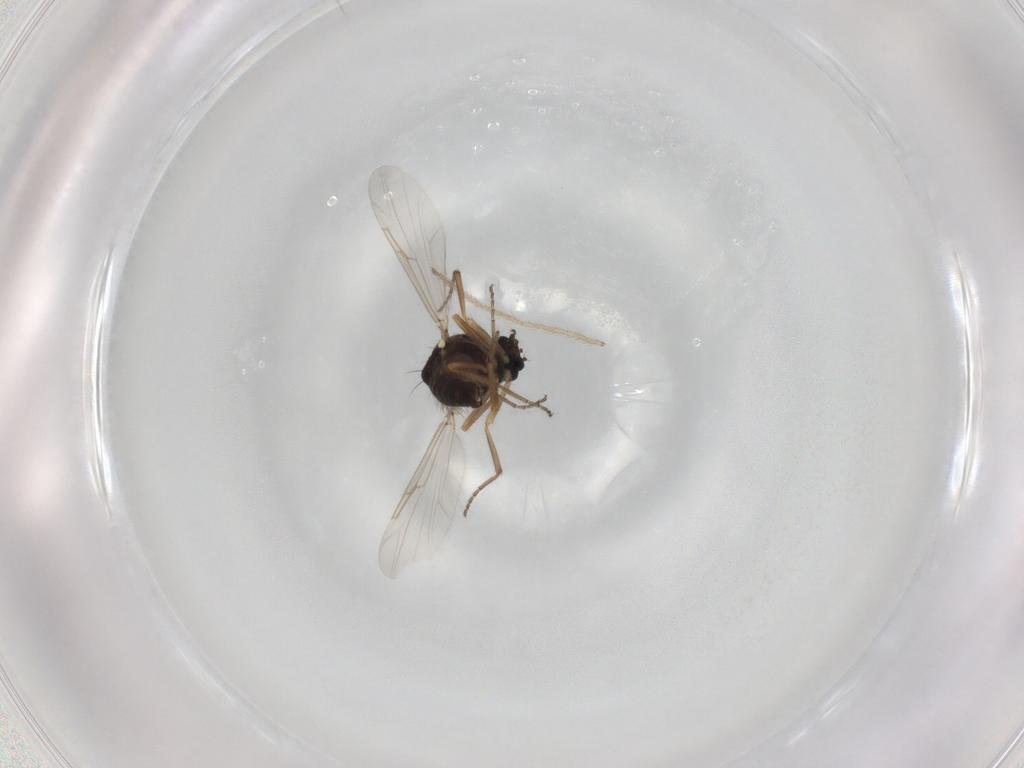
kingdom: Animalia
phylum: Arthropoda
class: Insecta
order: Diptera
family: Ceratopogonidae
